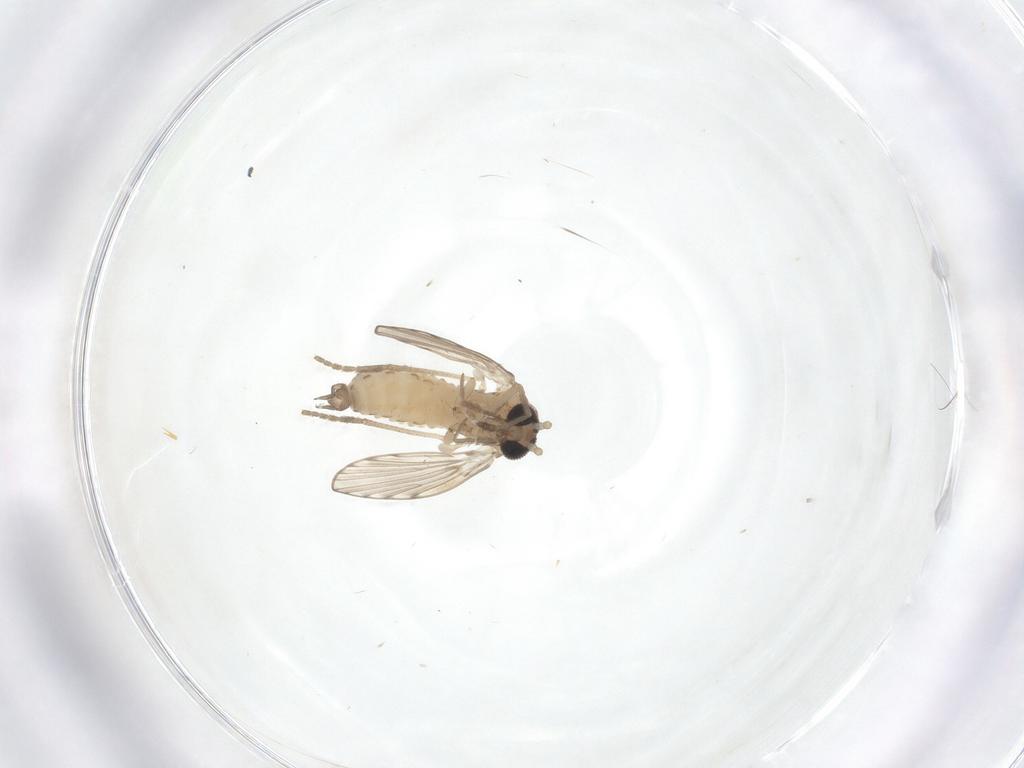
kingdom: Animalia
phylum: Arthropoda
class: Insecta
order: Diptera
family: Psychodidae
